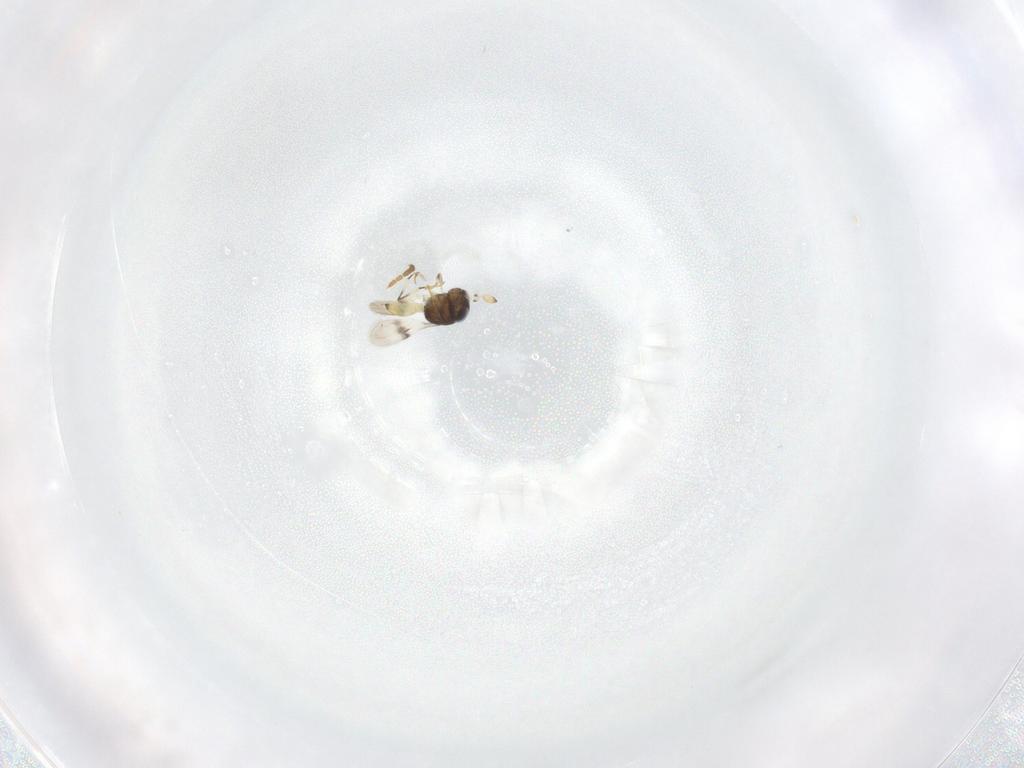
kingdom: Animalia
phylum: Arthropoda
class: Insecta
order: Hymenoptera
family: Scelionidae
